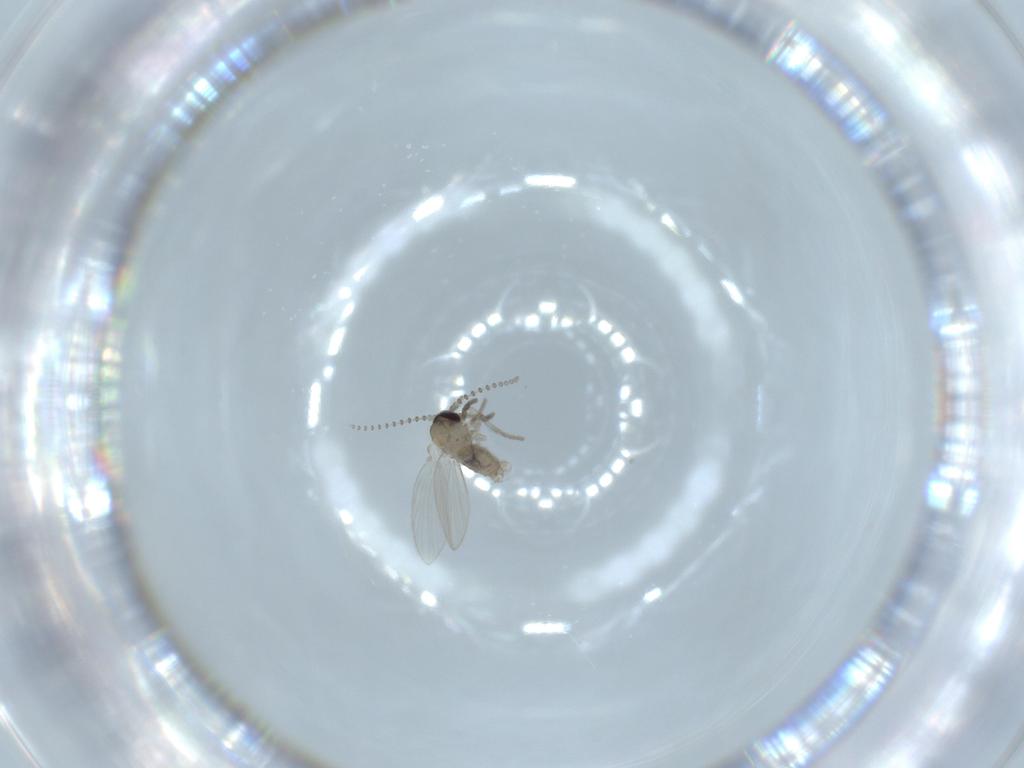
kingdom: Animalia
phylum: Arthropoda
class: Insecta
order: Diptera
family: Psychodidae
